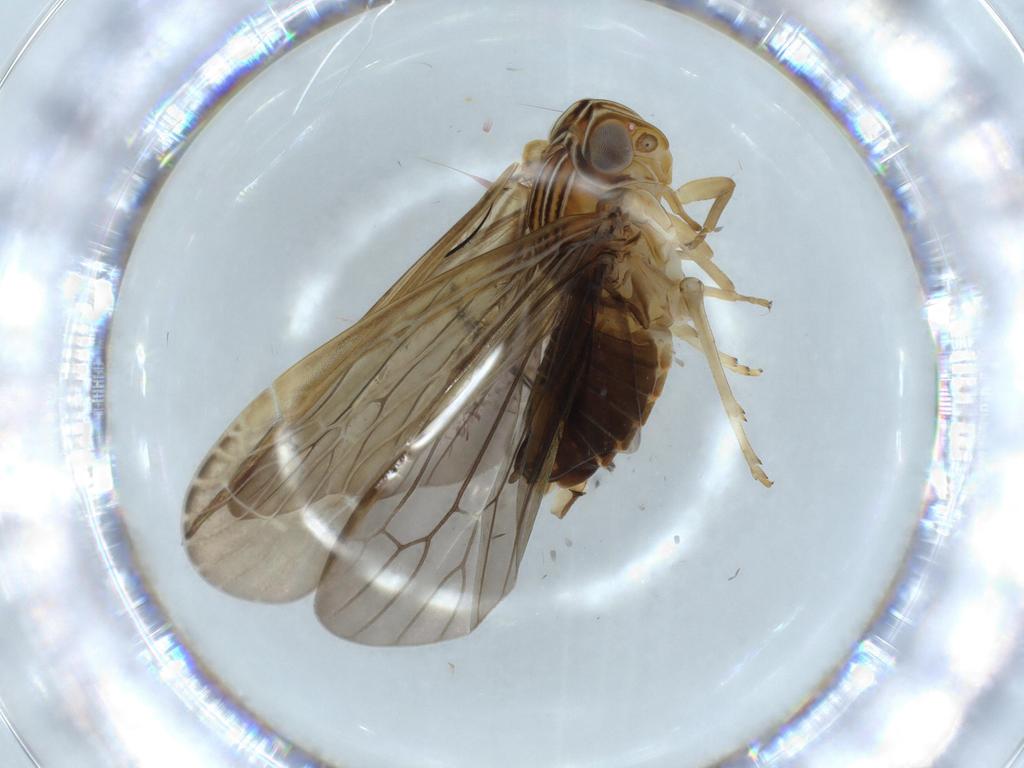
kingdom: Animalia
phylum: Arthropoda
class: Insecta
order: Hemiptera
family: Achilidae
